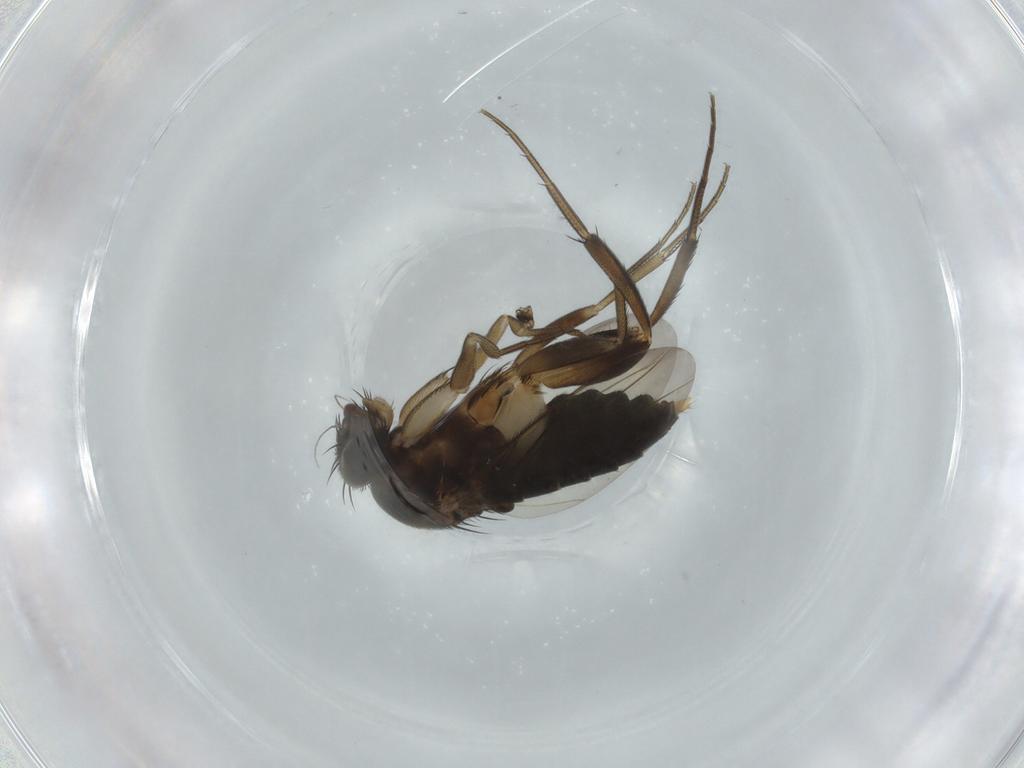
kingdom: Animalia
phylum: Arthropoda
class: Insecta
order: Diptera
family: Phoridae
